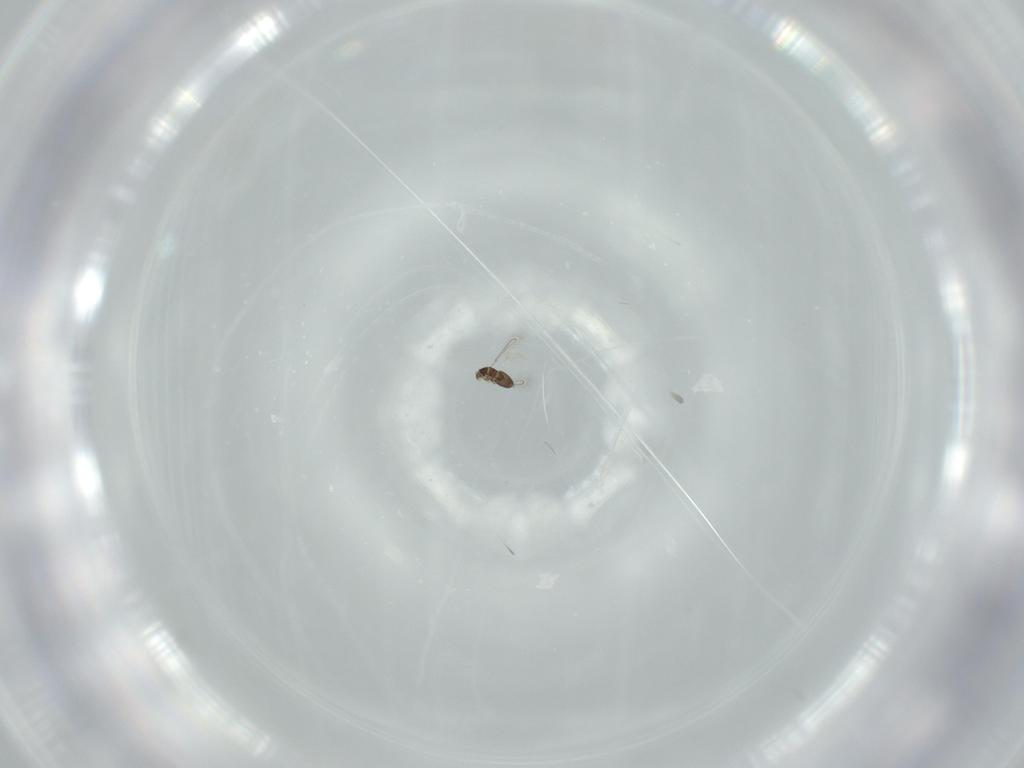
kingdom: Animalia
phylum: Arthropoda
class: Insecta
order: Hymenoptera
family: Mymaridae
